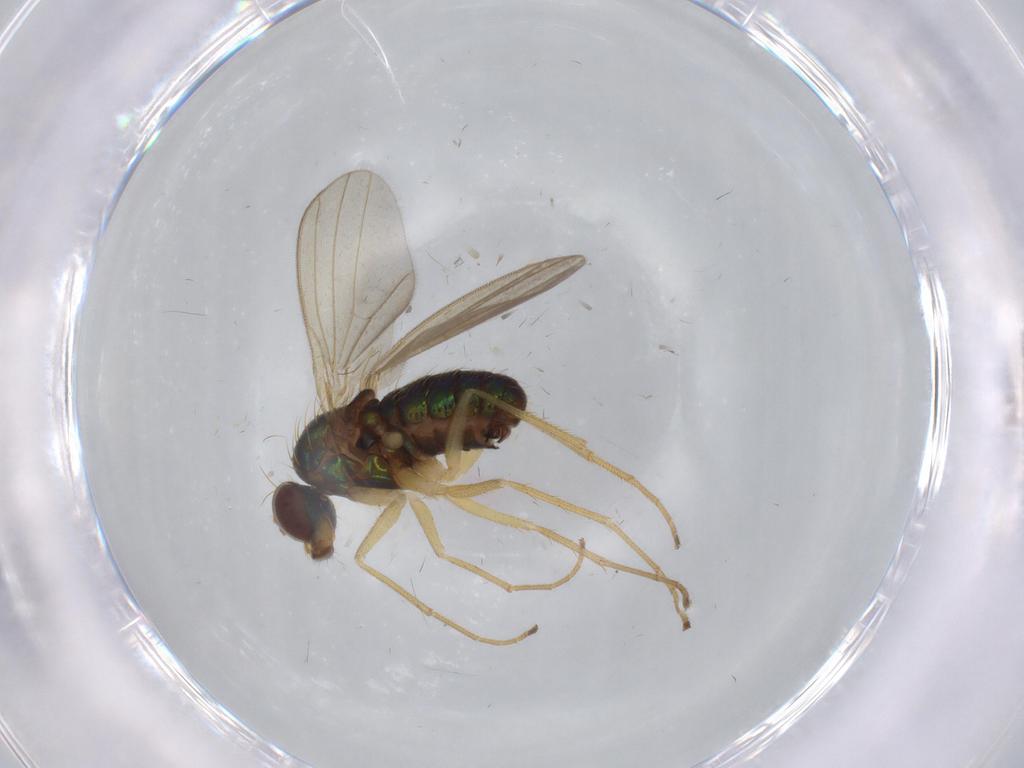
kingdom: Animalia
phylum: Arthropoda
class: Insecta
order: Diptera
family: Dolichopodidae
